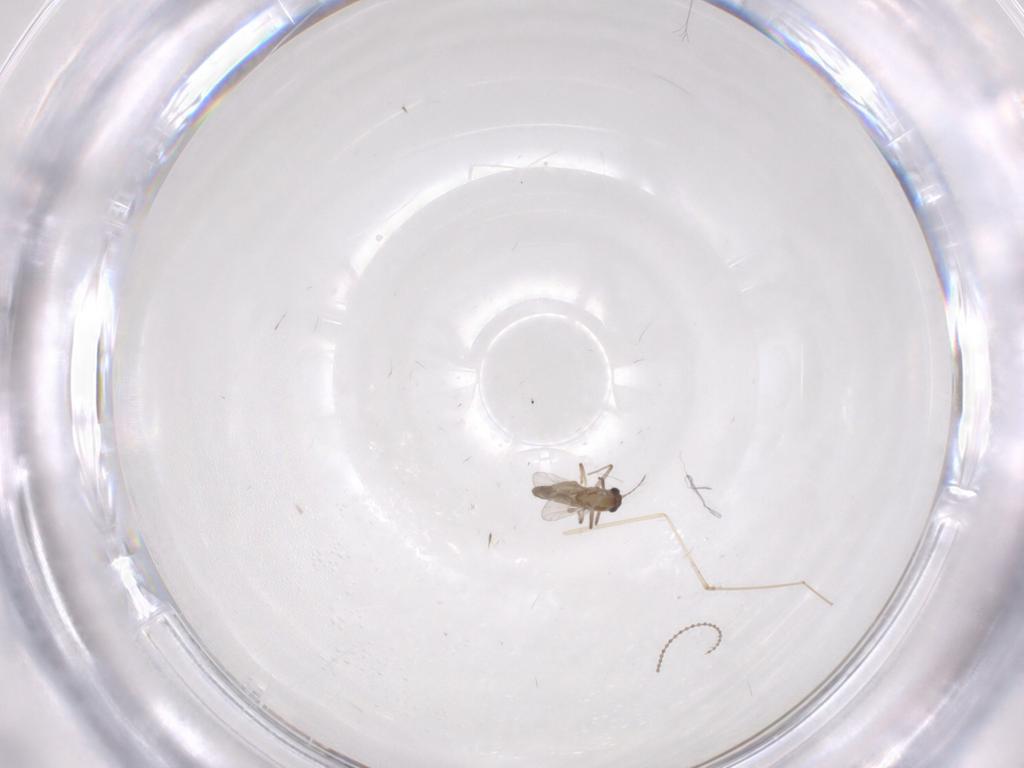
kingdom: Animalia
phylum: Arthropoda
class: Insecta
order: Diptera
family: Chironomidae
